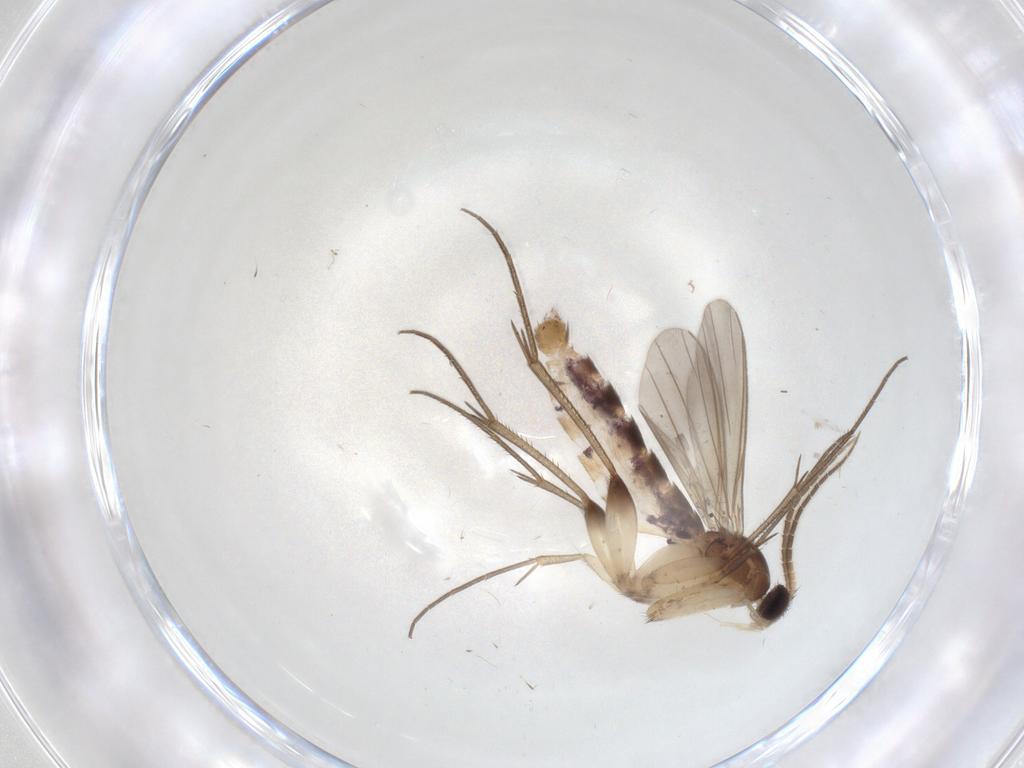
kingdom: Animalia
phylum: Arthropoda
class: Insecta
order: Diptera
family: Mycetophilidae
